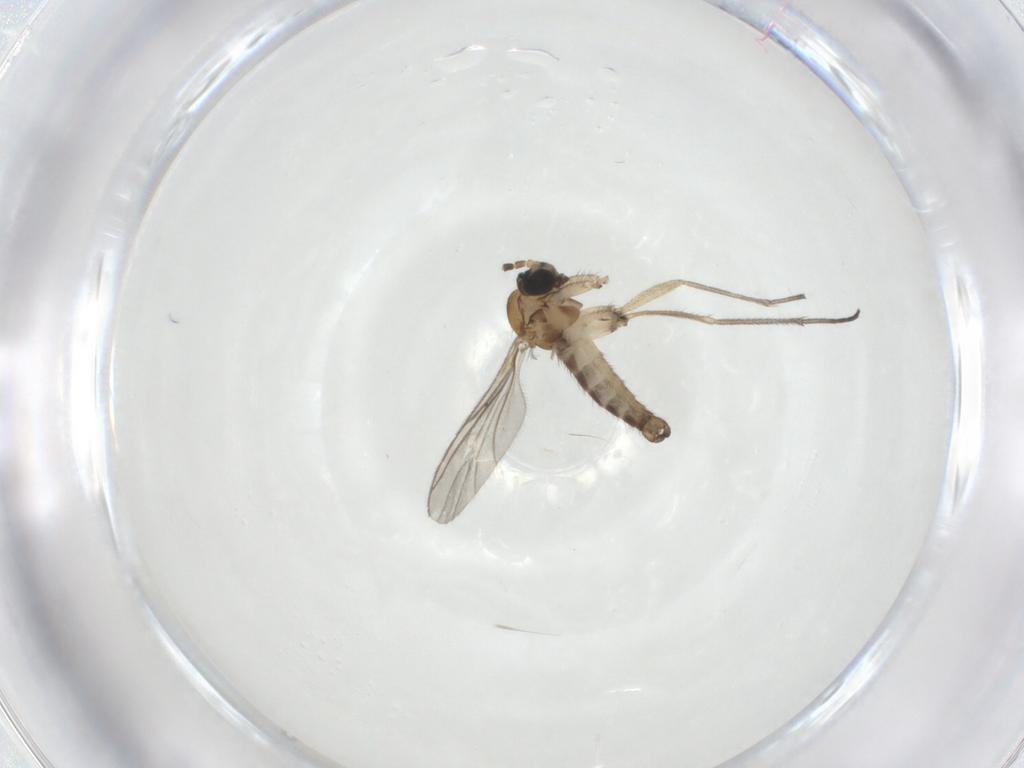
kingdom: Animalia
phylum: Arthropoda
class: Insecta
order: Diptera
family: Sciaridae
